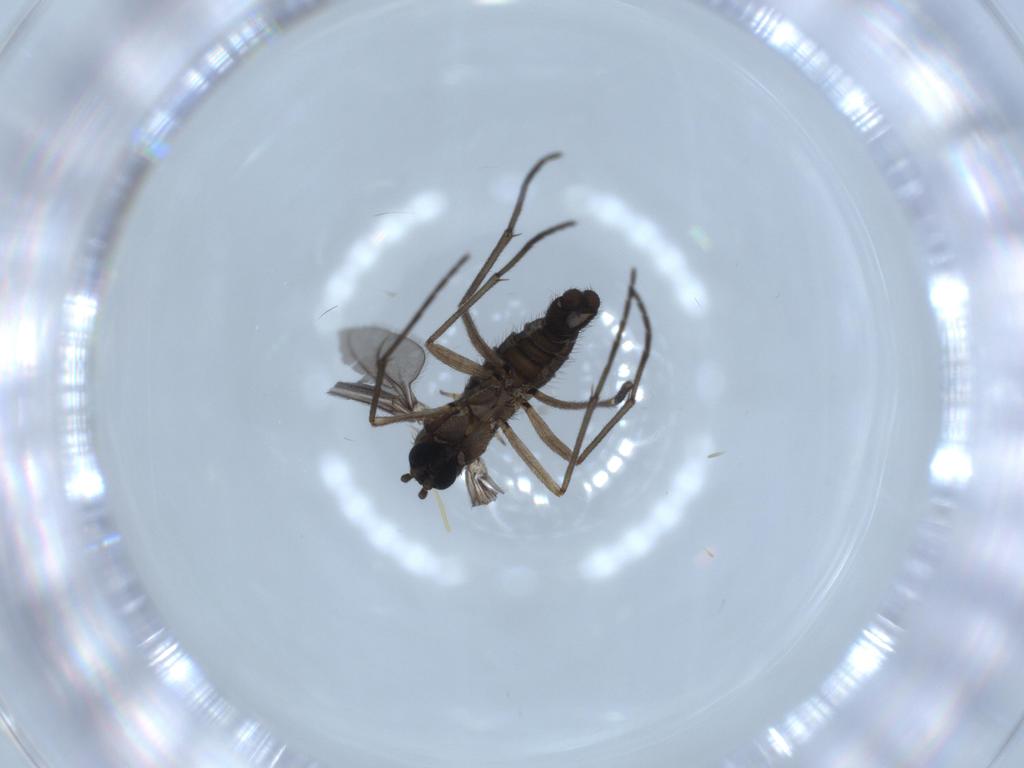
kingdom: Animalia
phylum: Arthropoda
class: Insecta
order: Diptera
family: Sciaridae
